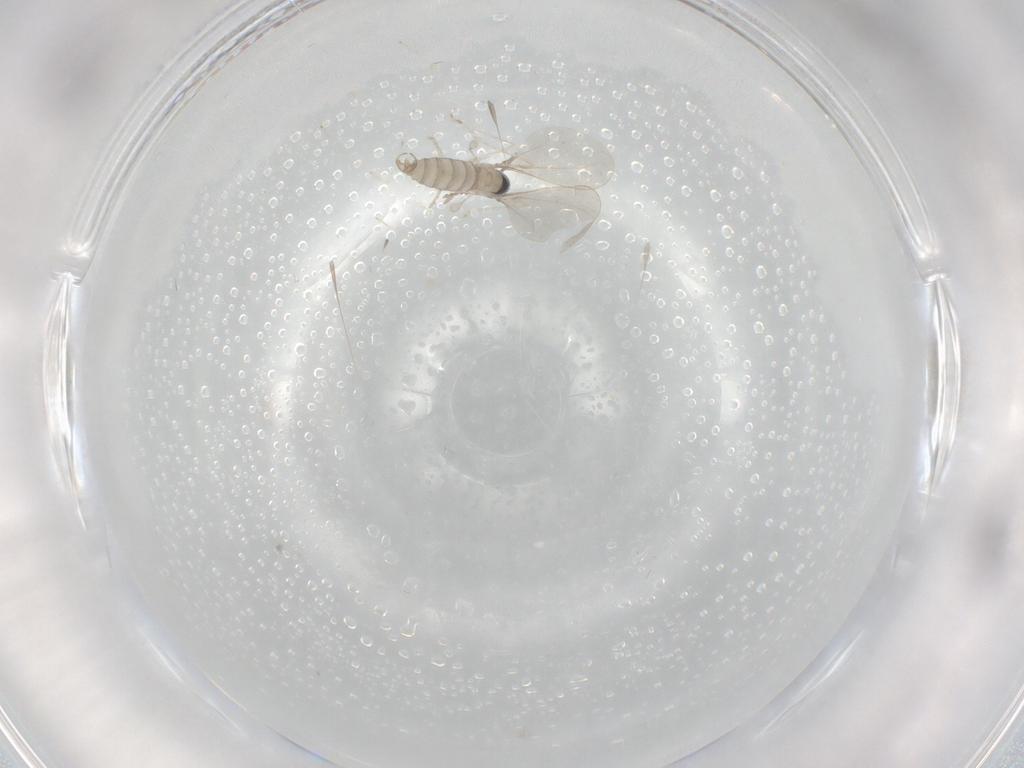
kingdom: Animalia
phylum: Arthropoda
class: Insecta
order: Diptera
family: Cecidomyiidae
